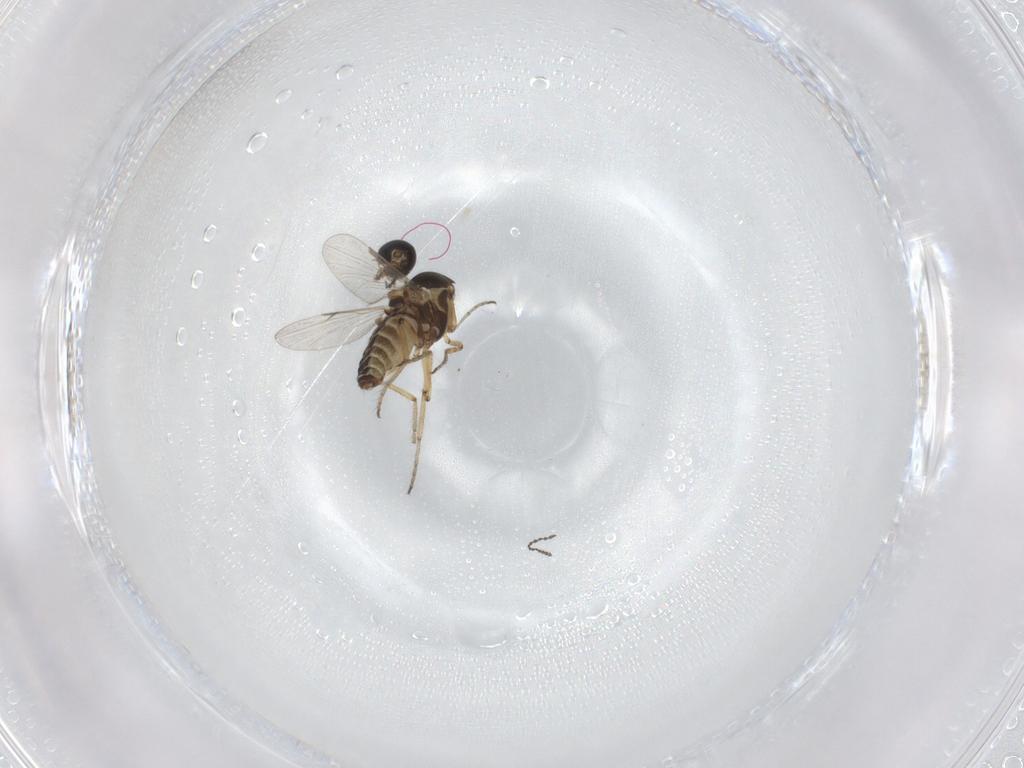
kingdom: Animalia
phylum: Arthropoda
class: Insecta
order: Diptera
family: Ceratopogonidae
